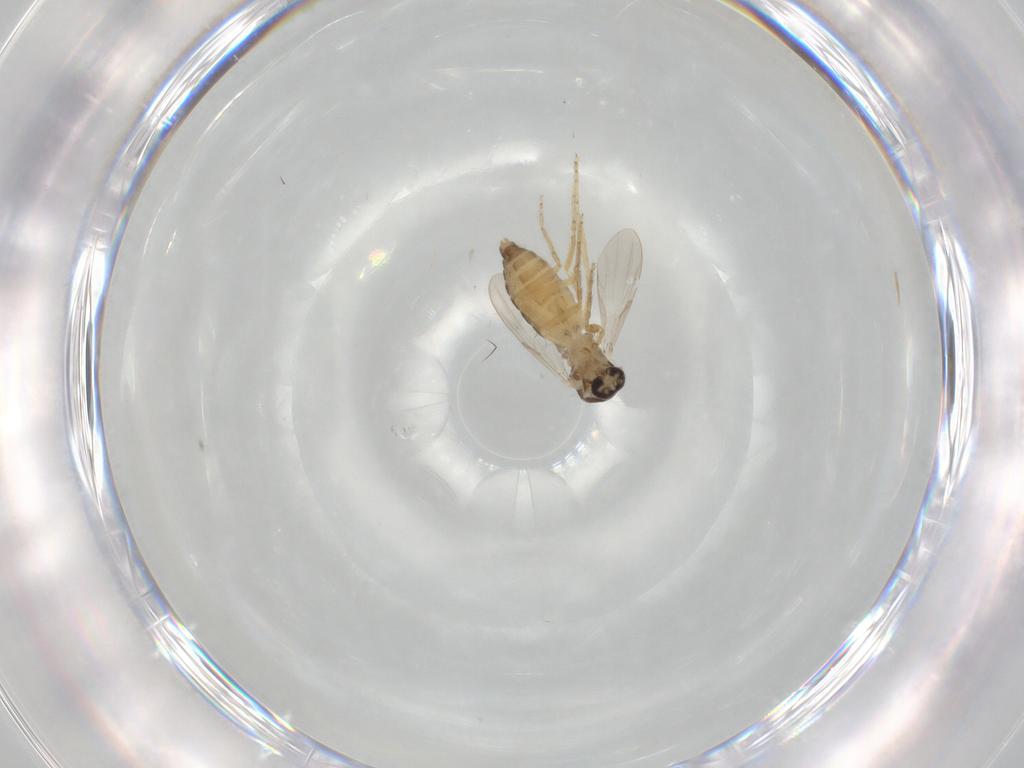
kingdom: Animalia
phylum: Arthropoda
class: Insecta
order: Diptera
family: Ceratopogonidae
